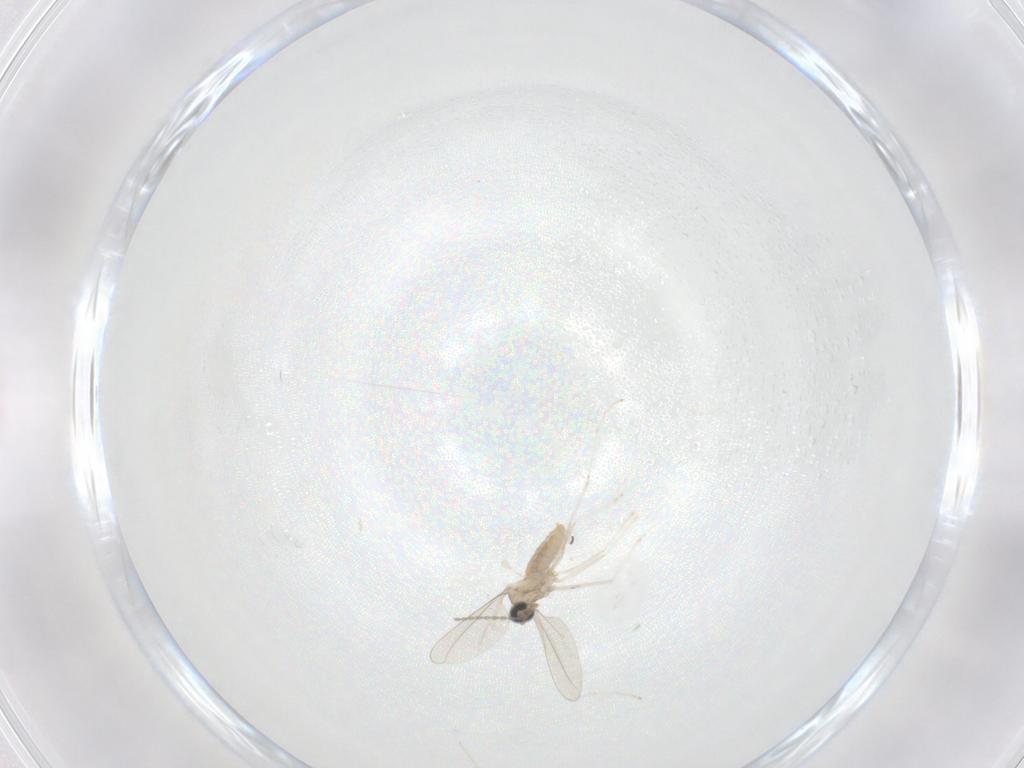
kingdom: Animalia
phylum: Arthropoda
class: Insecta
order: Diptera
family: Cecidomyiidae
